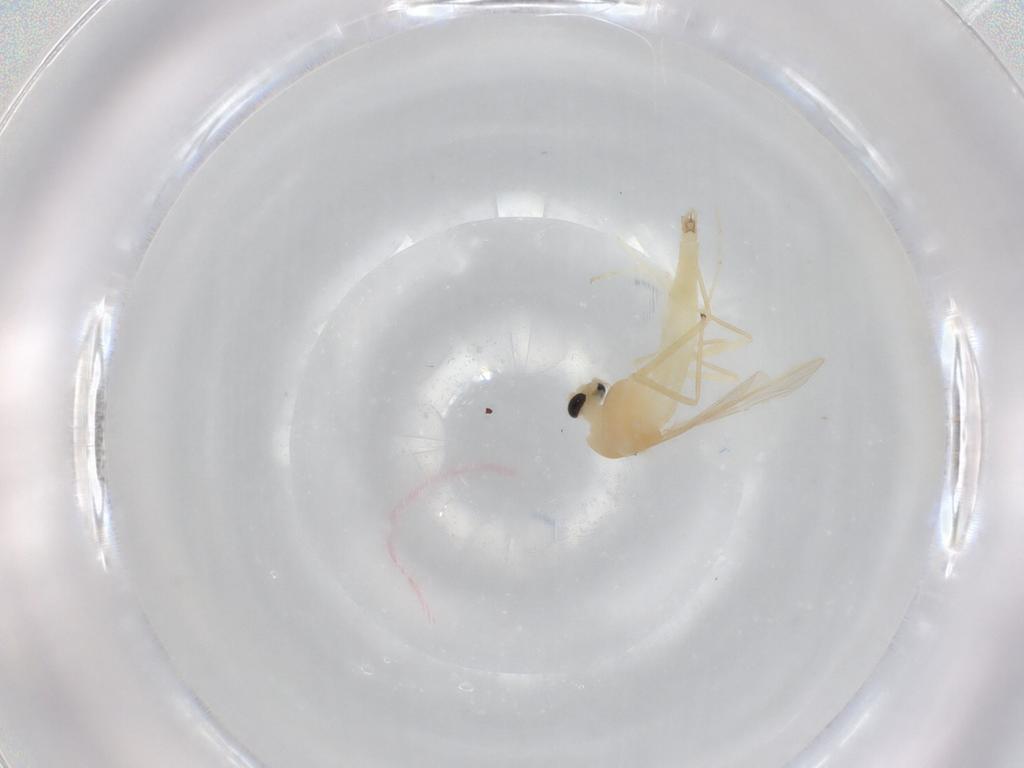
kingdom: Animalia
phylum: Arthropoda
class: Insecta
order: Diptera
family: Chironomidae
